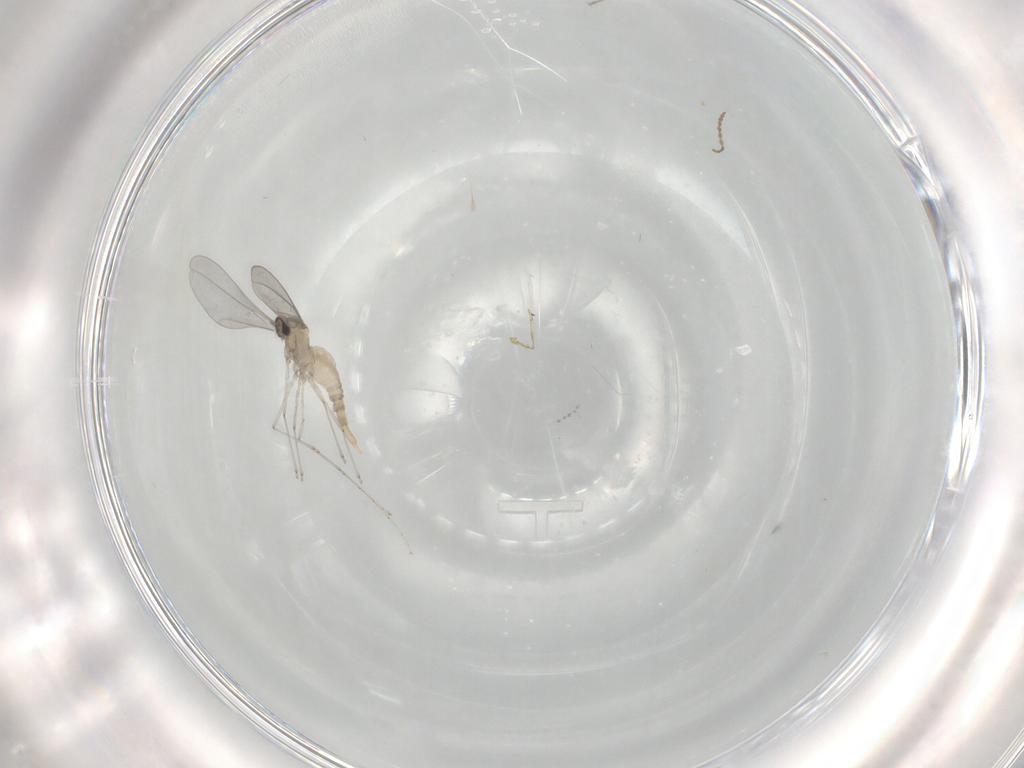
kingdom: Animalia
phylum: Arthropoda
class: Insecta
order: Diptera
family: Cecidomyiidae
